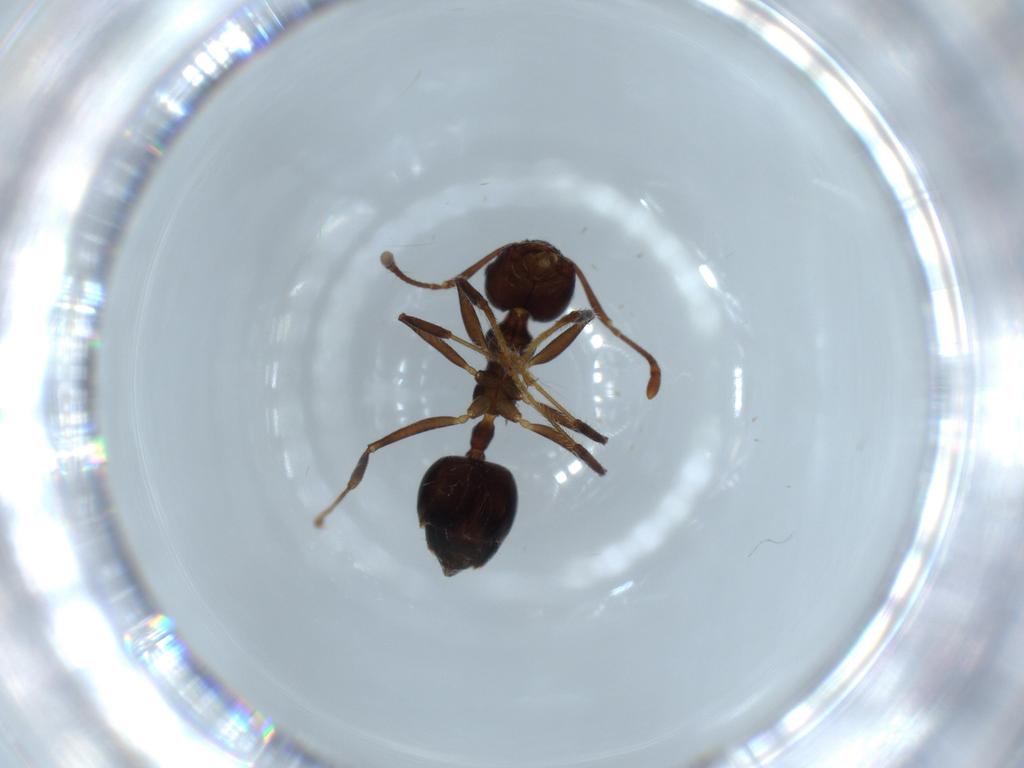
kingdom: Animalia
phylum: Arthropoda
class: Insecta
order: Hymenoptera
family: Formicidae
